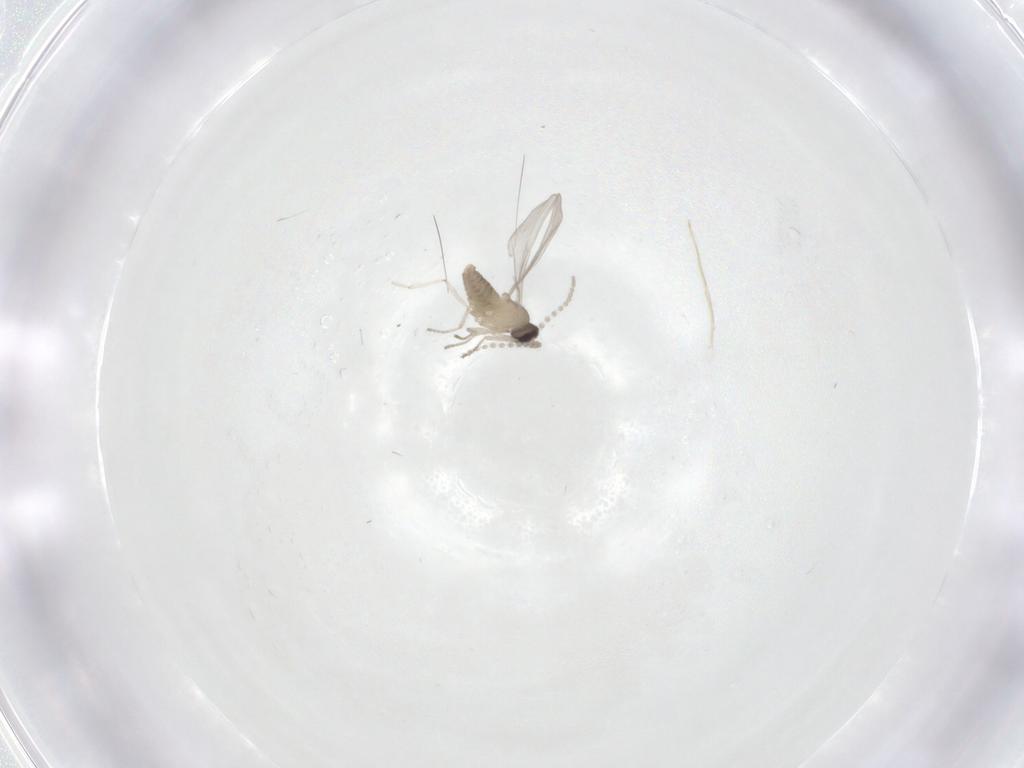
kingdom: Animalia
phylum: Arthropoda
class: Insecta
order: Diptera
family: Cecidomyiidae
